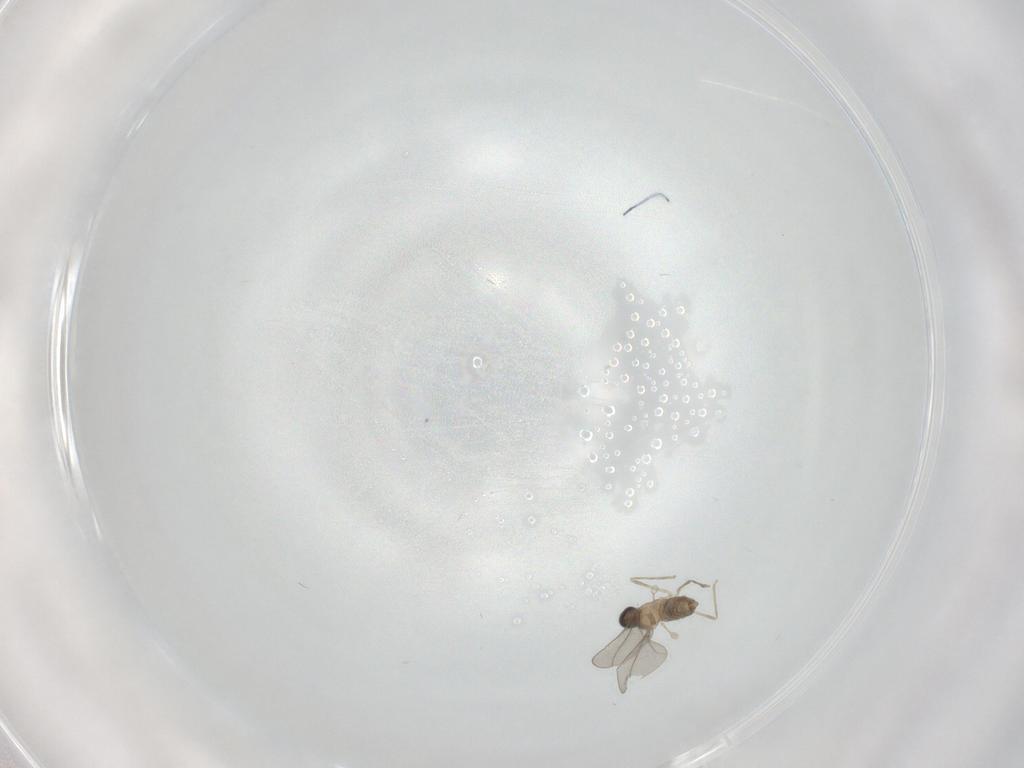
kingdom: Animalia
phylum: Arthropoda
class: Insecta
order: Diptera
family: Cecidomyiidae
